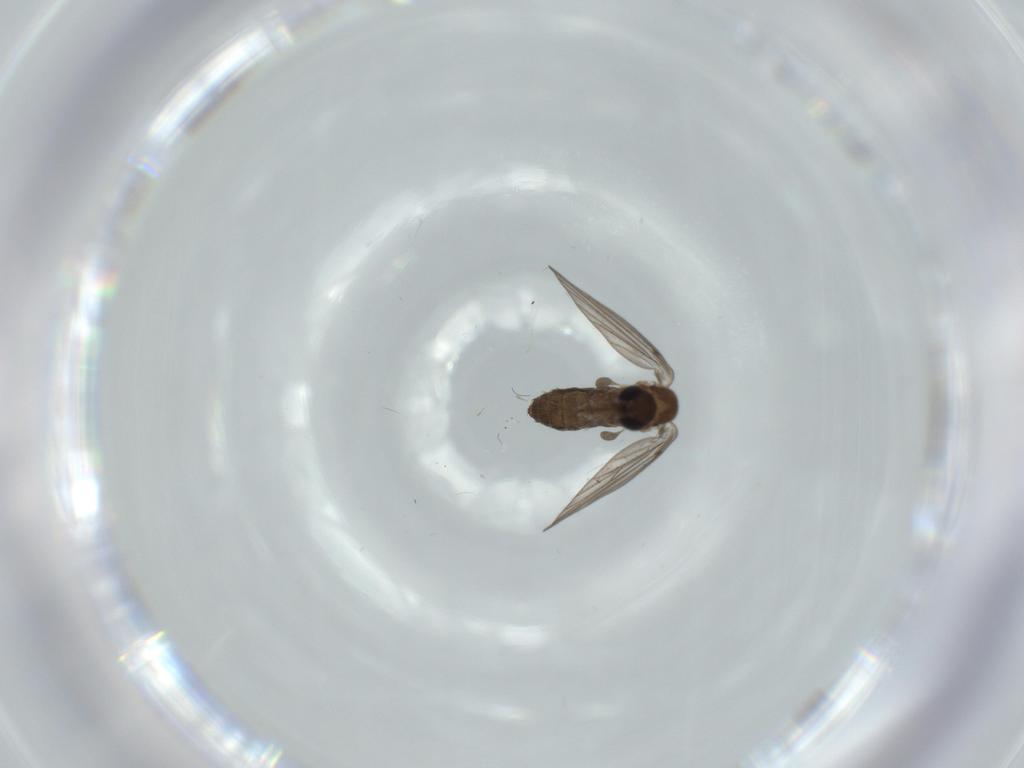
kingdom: Animalia
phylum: Arthropoda
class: Insecta
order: Diptera
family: Psychodidae
